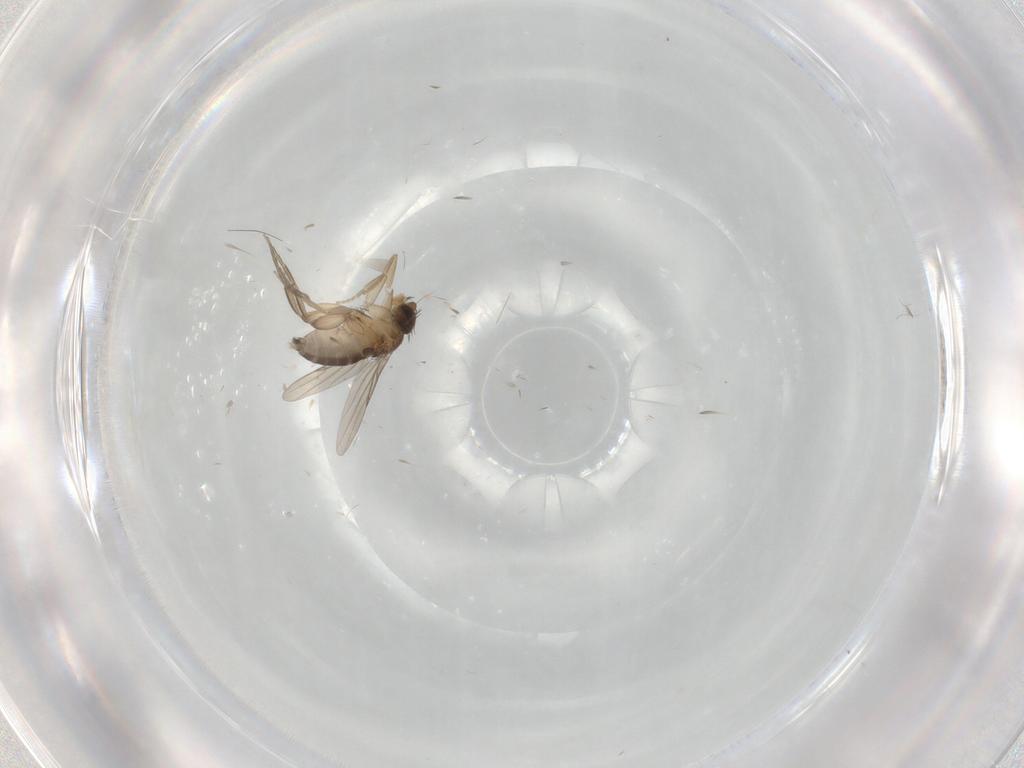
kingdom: Animalia
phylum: Arthropoda
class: Insecta
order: Diptera
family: Phoridae
